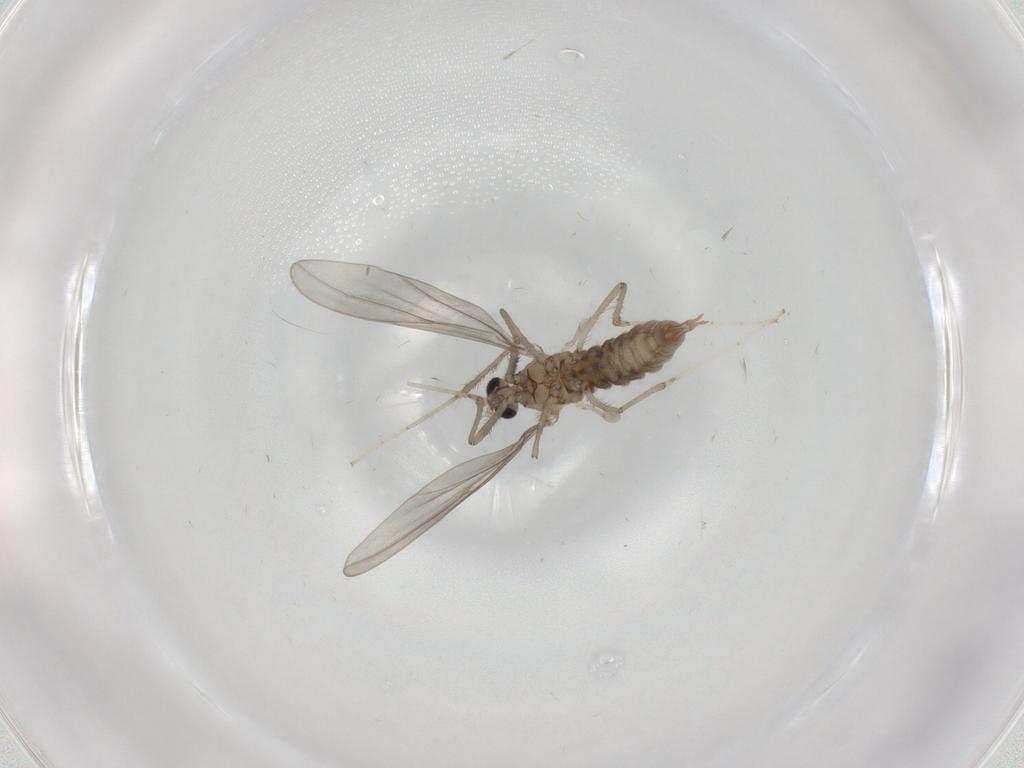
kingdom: Animalia
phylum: Arthropoda
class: Insecta
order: Diptera
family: Cecidomyiidae
